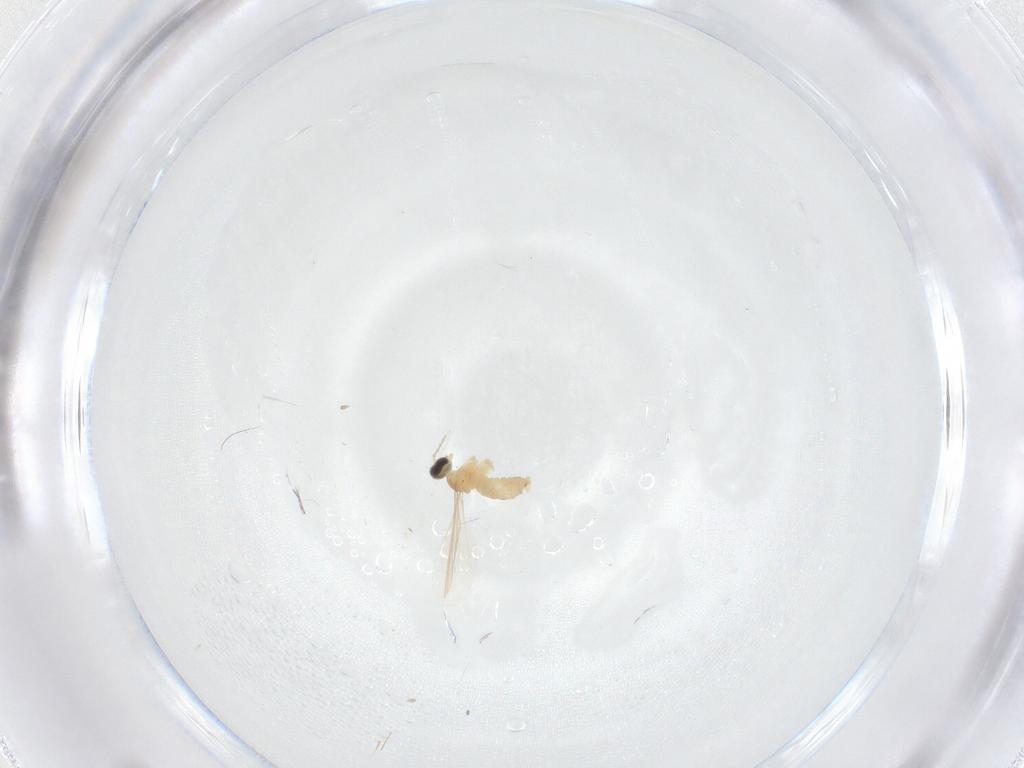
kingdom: Animalia
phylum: Arthropoda
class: Insecta
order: Diptera
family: Cecidomyiidae
